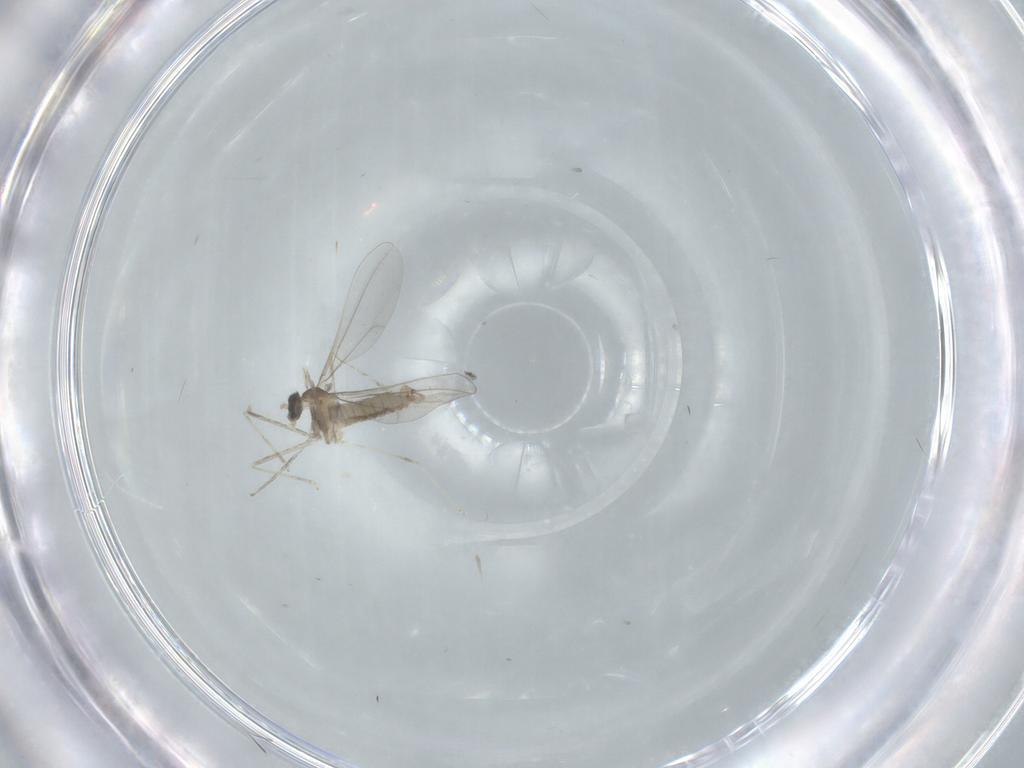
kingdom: Animalia
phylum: Arthropoda
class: Insecta
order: Diptera
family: Cecidomyiidae
